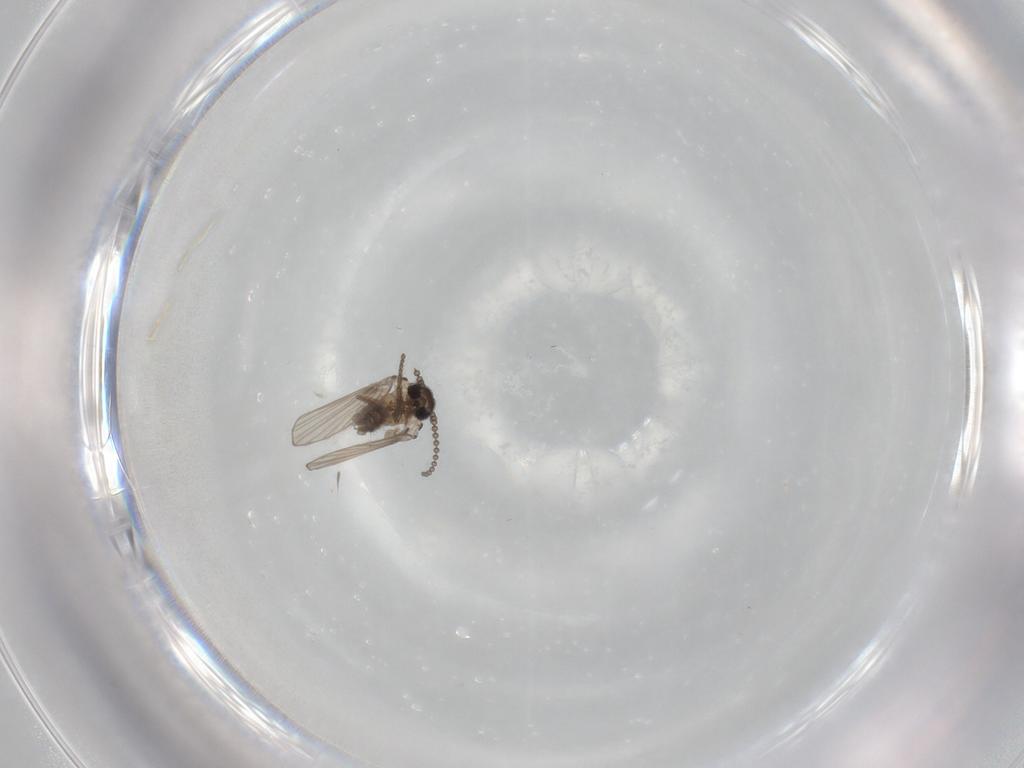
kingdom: Animalia
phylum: Arthropoda
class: Insecta
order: Diptera
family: Psychodidae
